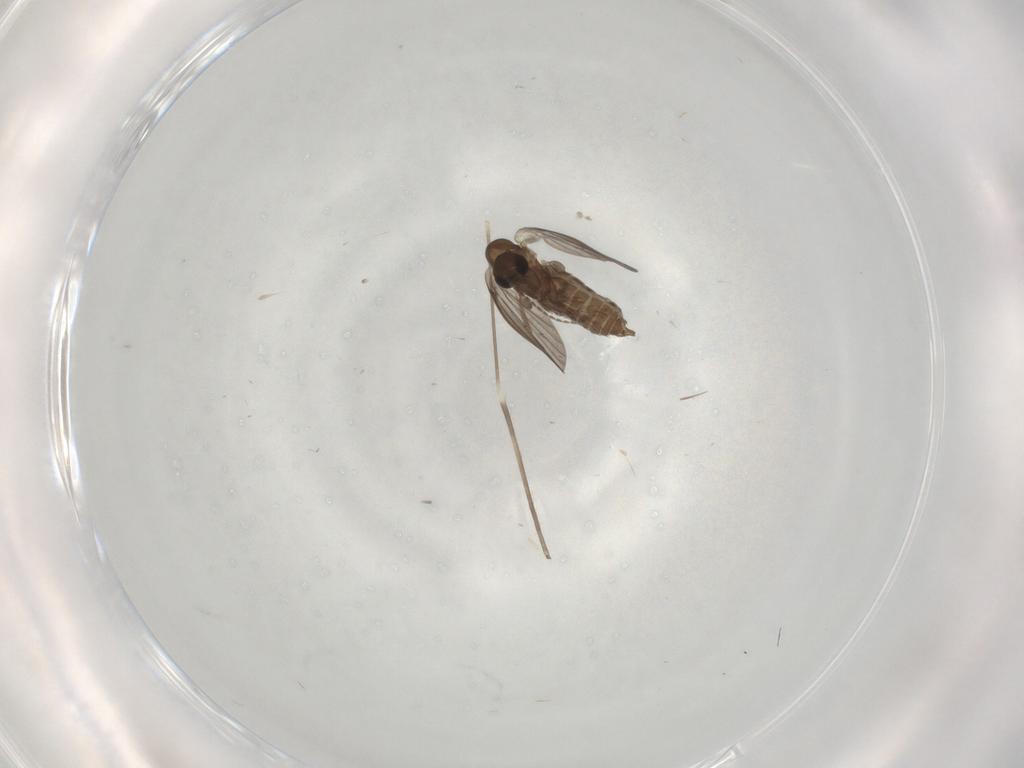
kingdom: Animalia
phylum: Arthropoda
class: Insecta
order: Diptera
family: Limoniidae
